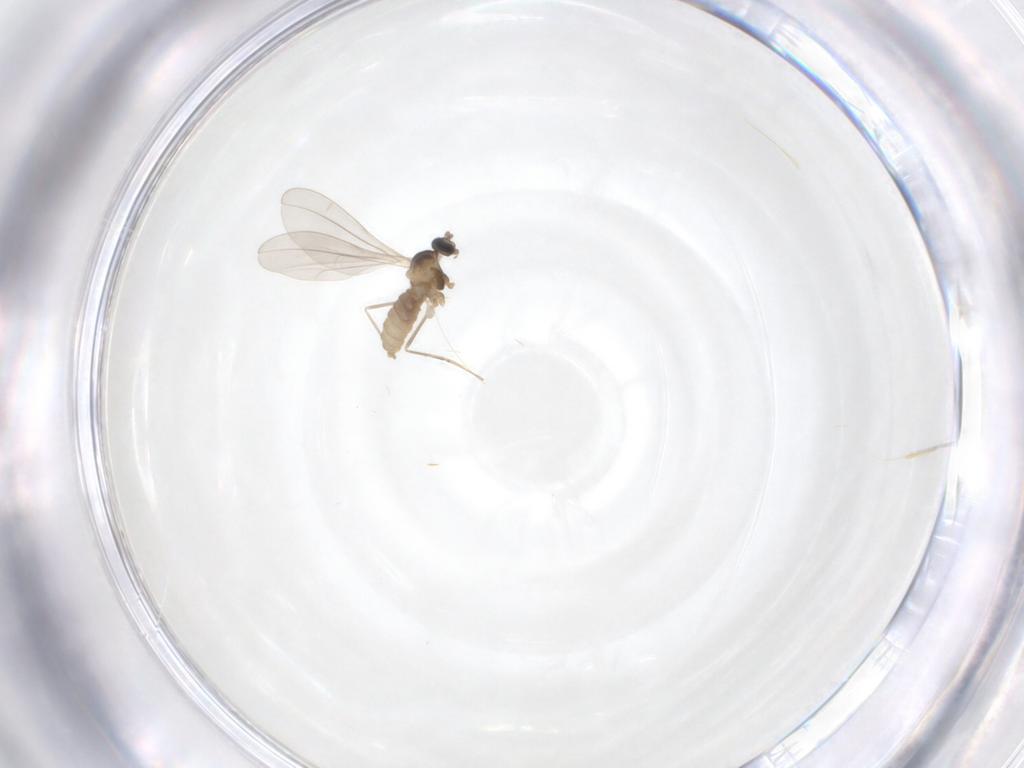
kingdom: Animalia
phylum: Arthropoda
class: Insecta
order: Diptera
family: Cecidomyiidae
